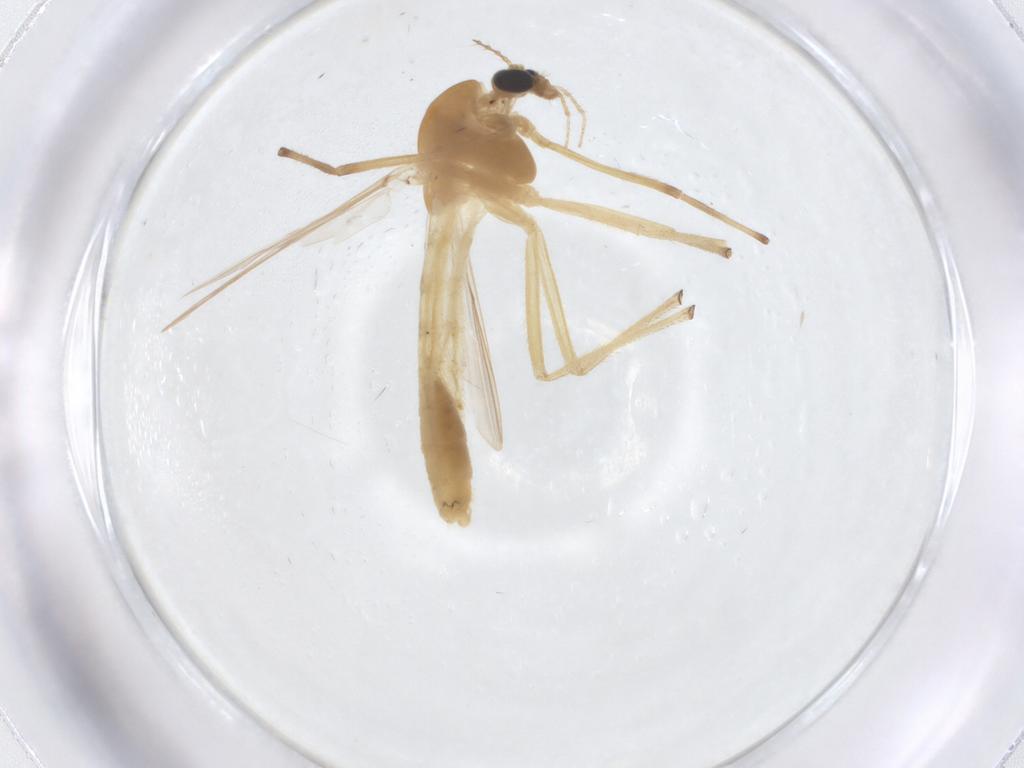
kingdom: Animalia
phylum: Arthropoda
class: Insecta
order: Diptera
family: Chironomidae
